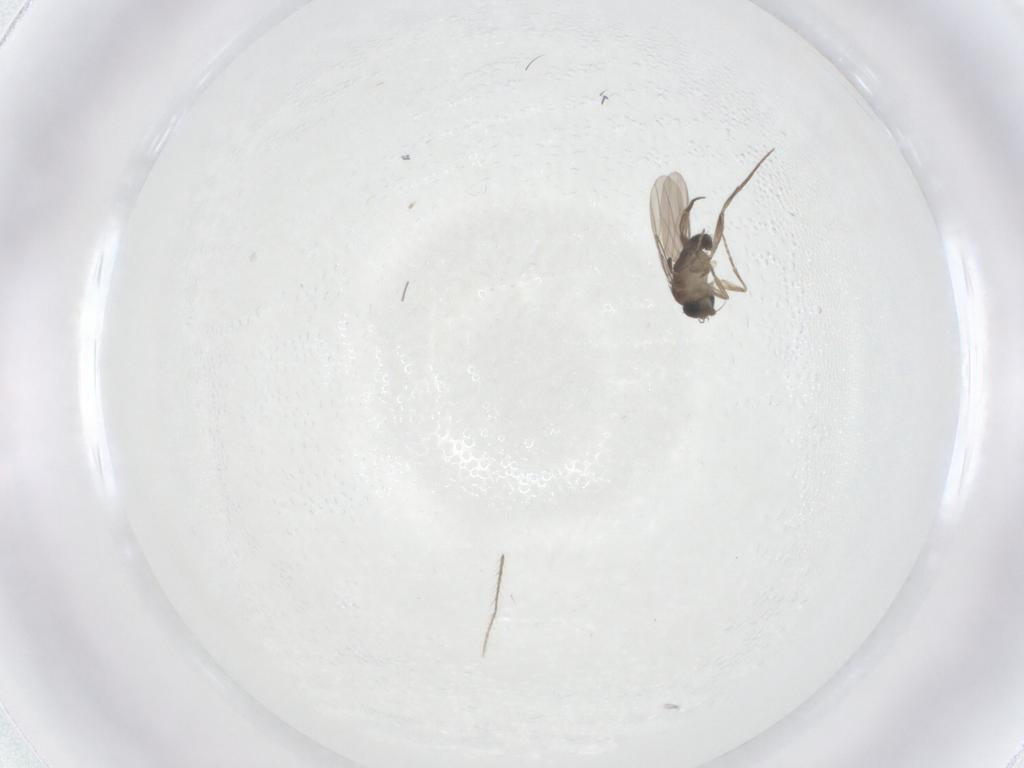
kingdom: Animalia
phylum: Arthropoda
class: Insecta
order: Diptera
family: Phoridae
